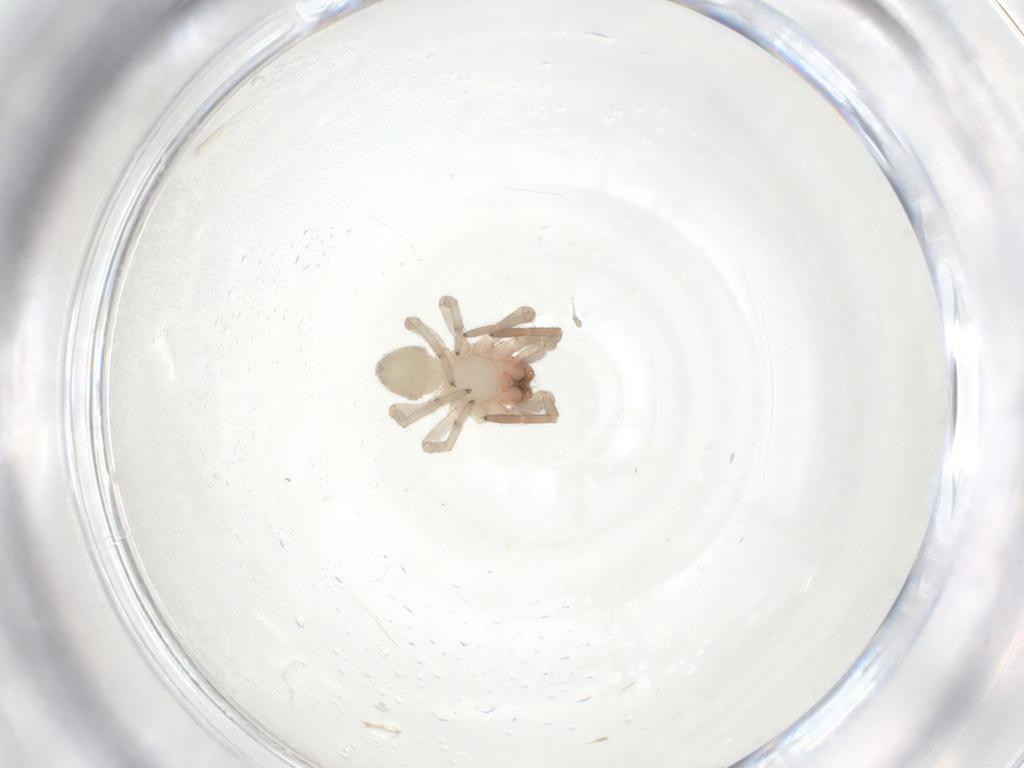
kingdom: Animalia
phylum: Arthropoda
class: Arachnida
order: Araneae
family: Trachelidae
